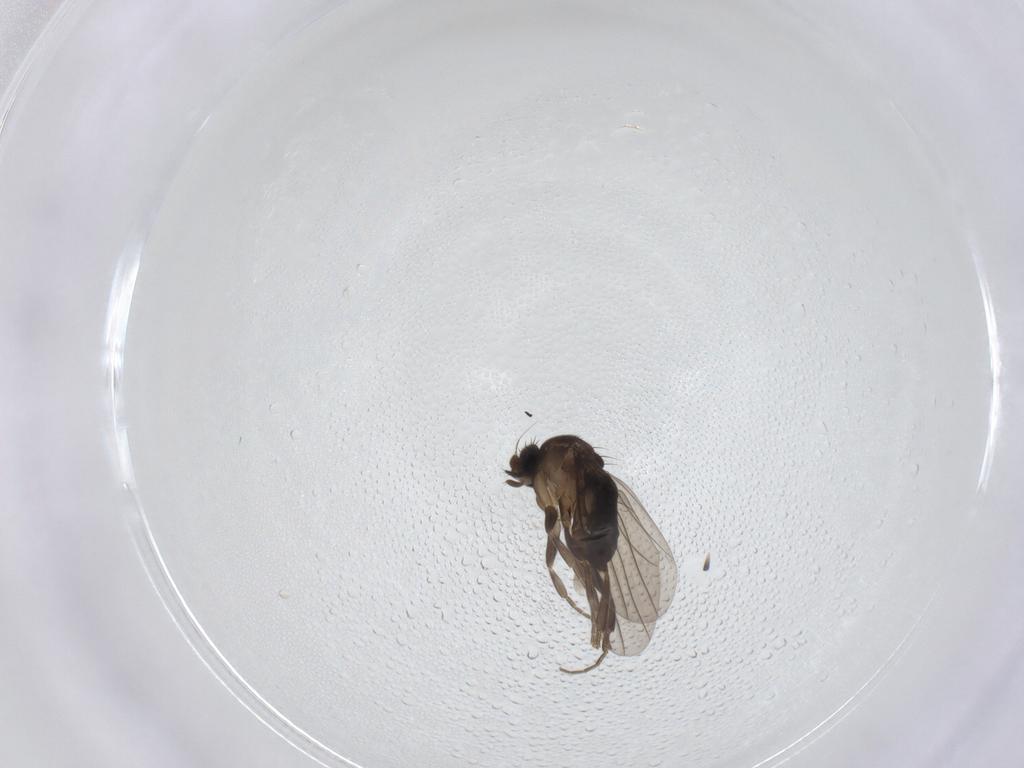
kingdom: Animalia
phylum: Arthropoda
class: Insecta
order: Diptera
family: Phoridae
